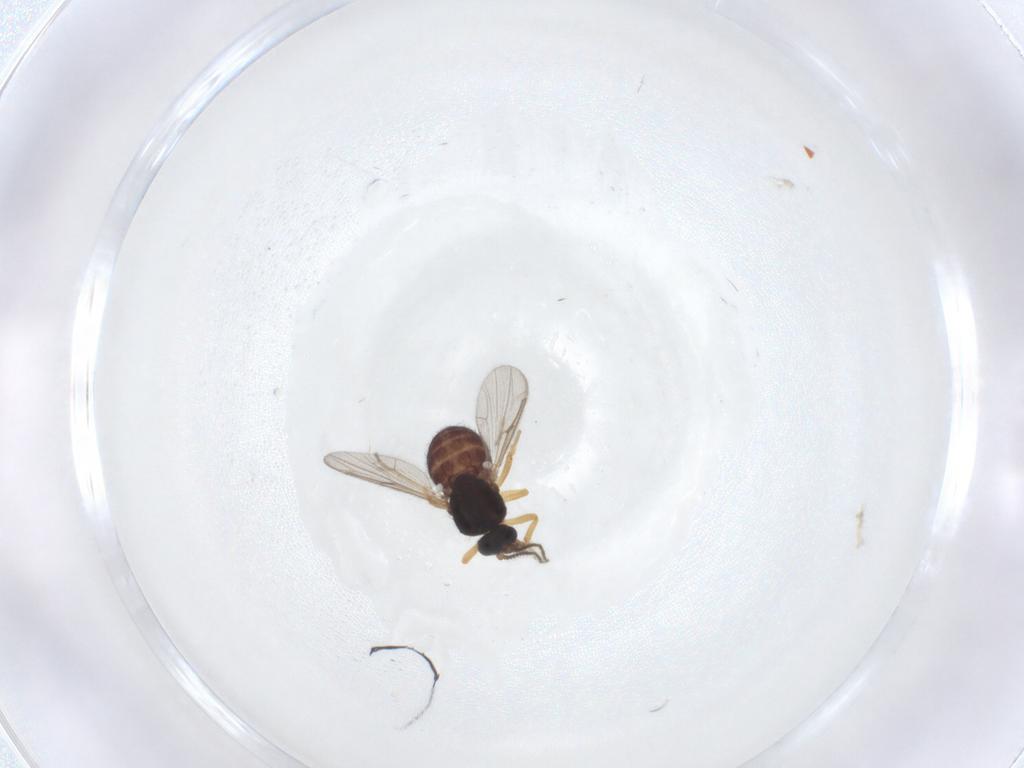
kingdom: Animalia
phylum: Arthropoda
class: Insecta
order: Diptera
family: Ceratopogonidae
